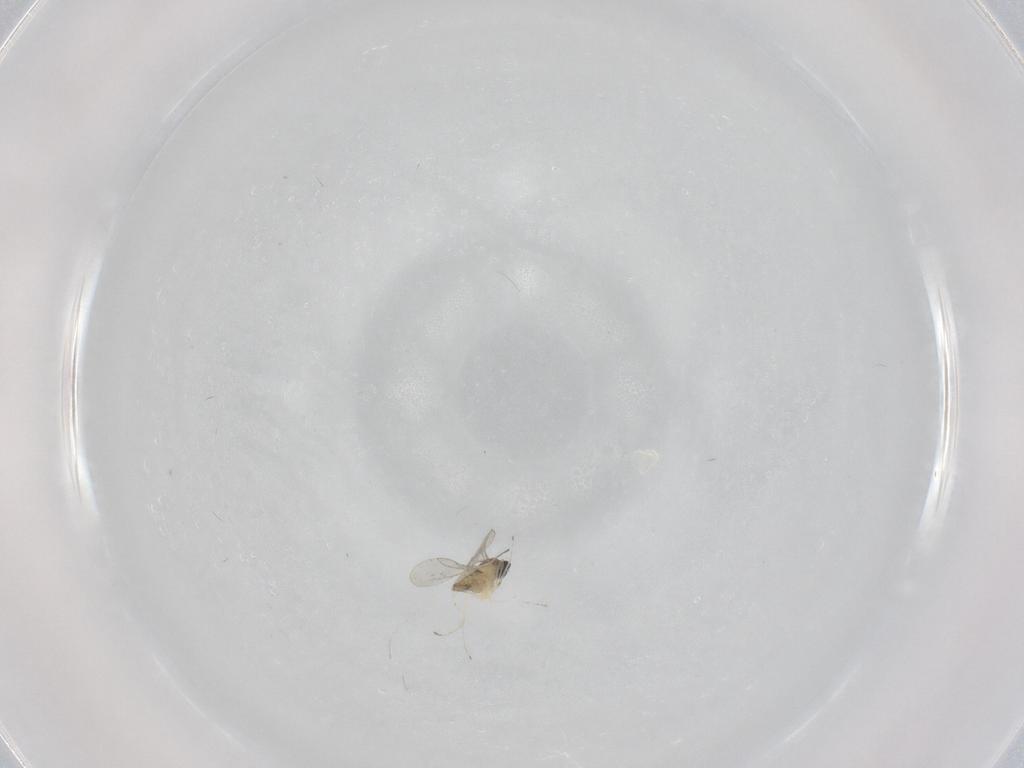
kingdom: Animalia
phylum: Arthropoda
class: Insecta
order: Diptera
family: Cecidomyiidae
